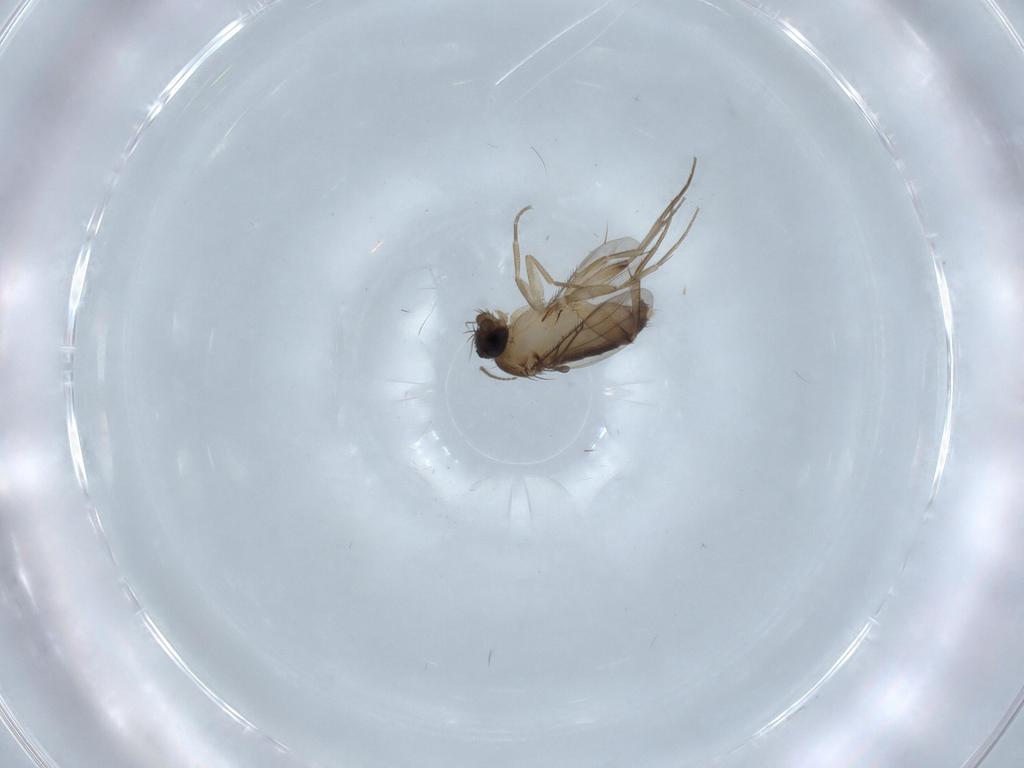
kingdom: Animalia
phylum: Arthropoda
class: Insecta
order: Diptera
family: Phoridae
